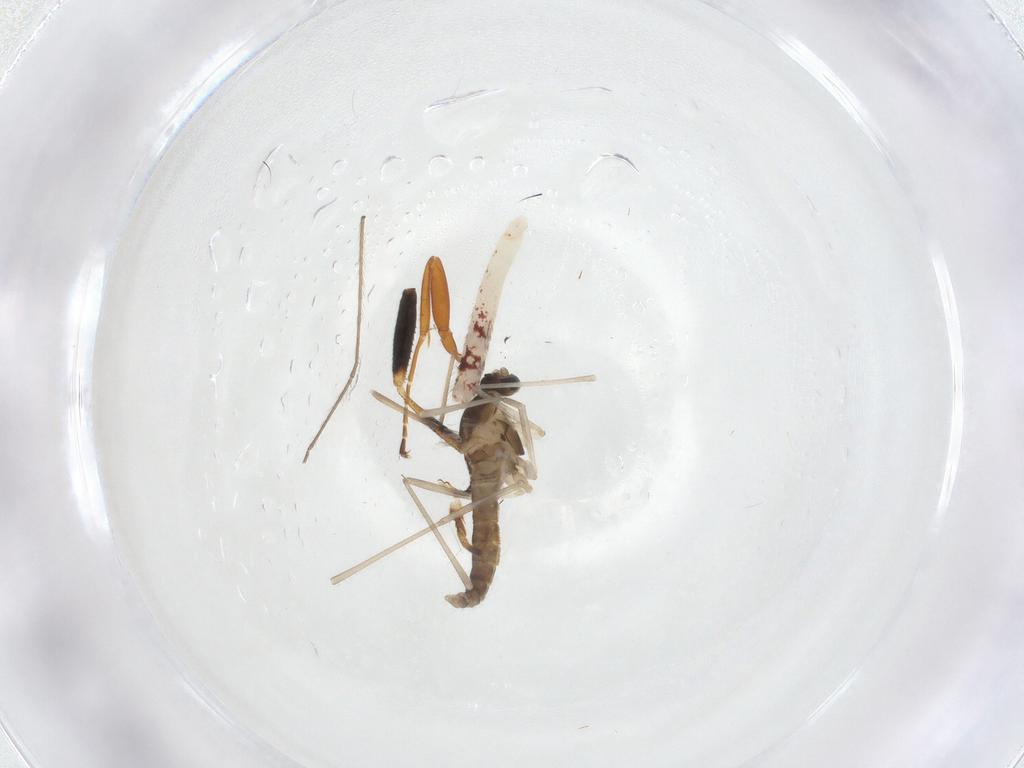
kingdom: Animalia
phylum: Arthropoda
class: Insecta
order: Diptera
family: Cecidomyiidae
